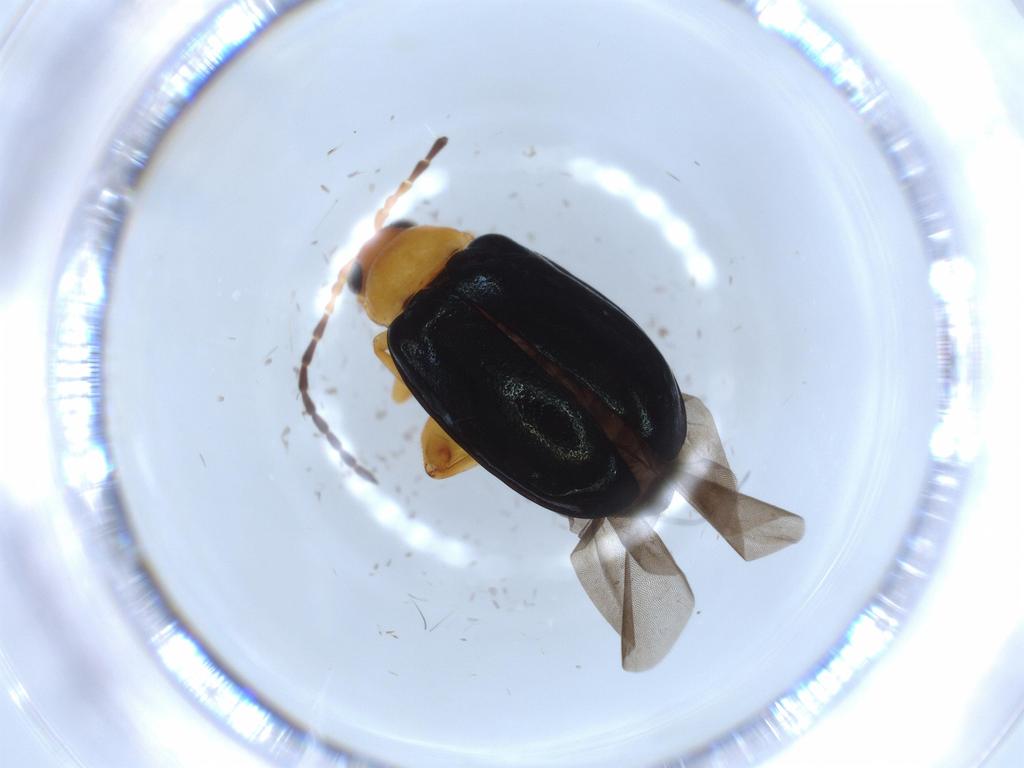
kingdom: Animalia
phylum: Arthropoda
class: Insecta
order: Coleoptera
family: Chrysomelidae
